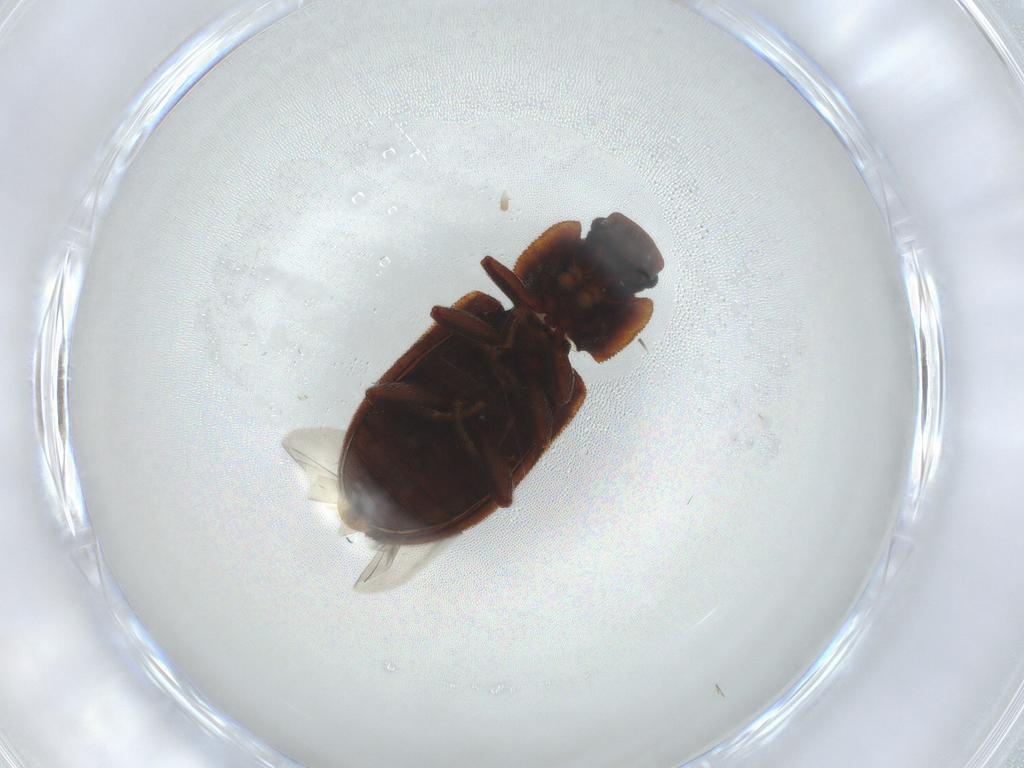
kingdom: Animalia
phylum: Arthropoda
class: Insecta
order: Coleoptera
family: Zopheridae
